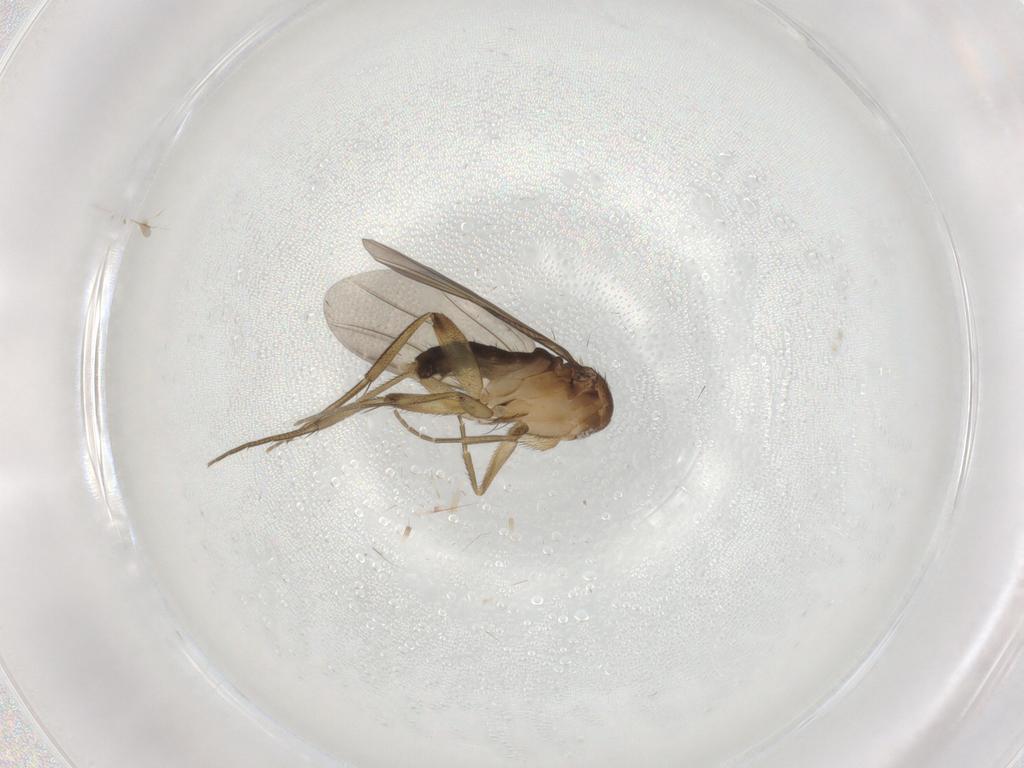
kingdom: Animalia
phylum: Arthropoda
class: Insecta
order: Diptera
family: Phoridae
